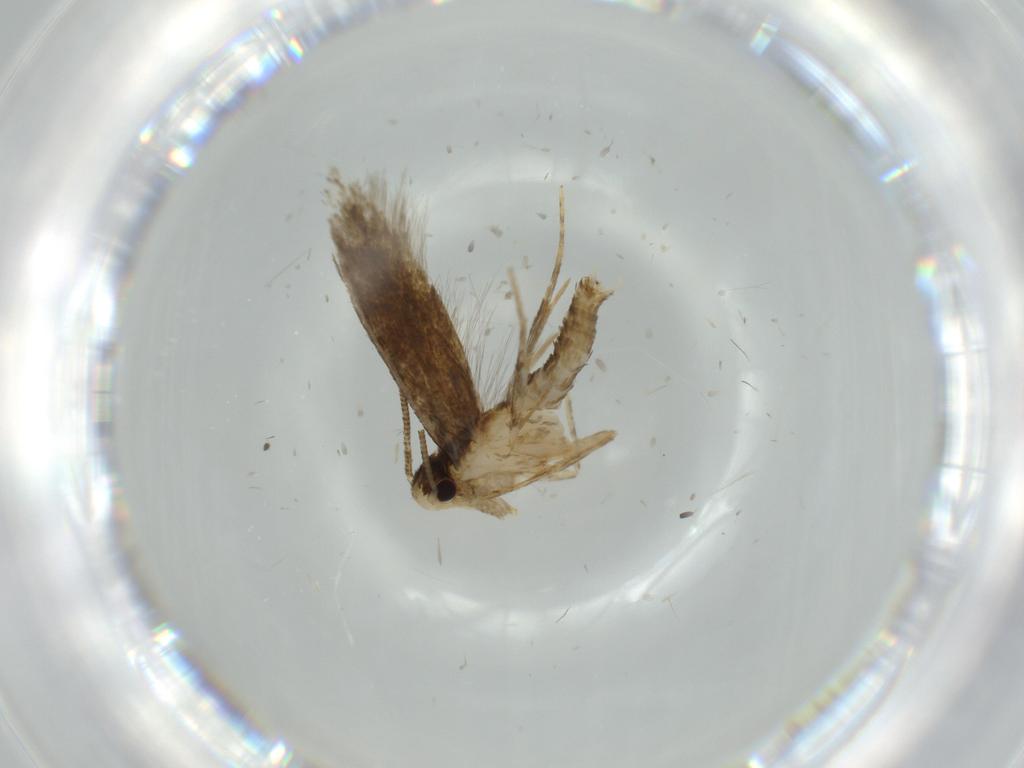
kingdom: Animalia
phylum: Arthropoda
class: Insecta
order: Lepidoptera
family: Tineidae
